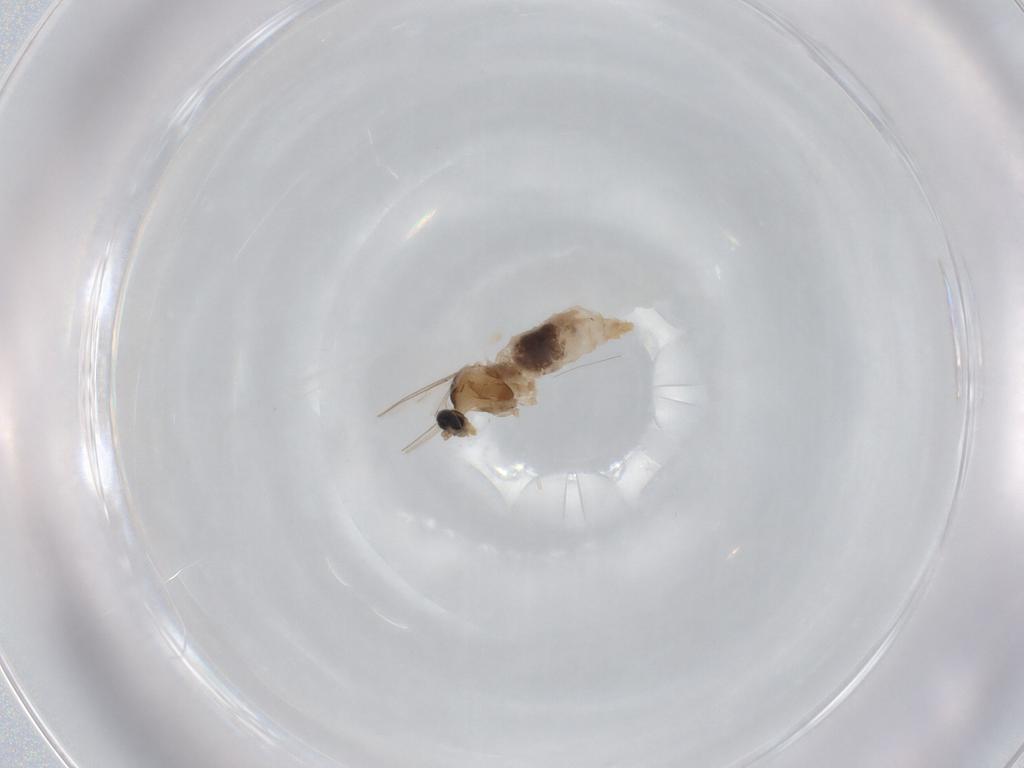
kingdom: Animalia
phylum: Arthropoda
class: Insecta
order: Diptera
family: Cecidomyiidae
